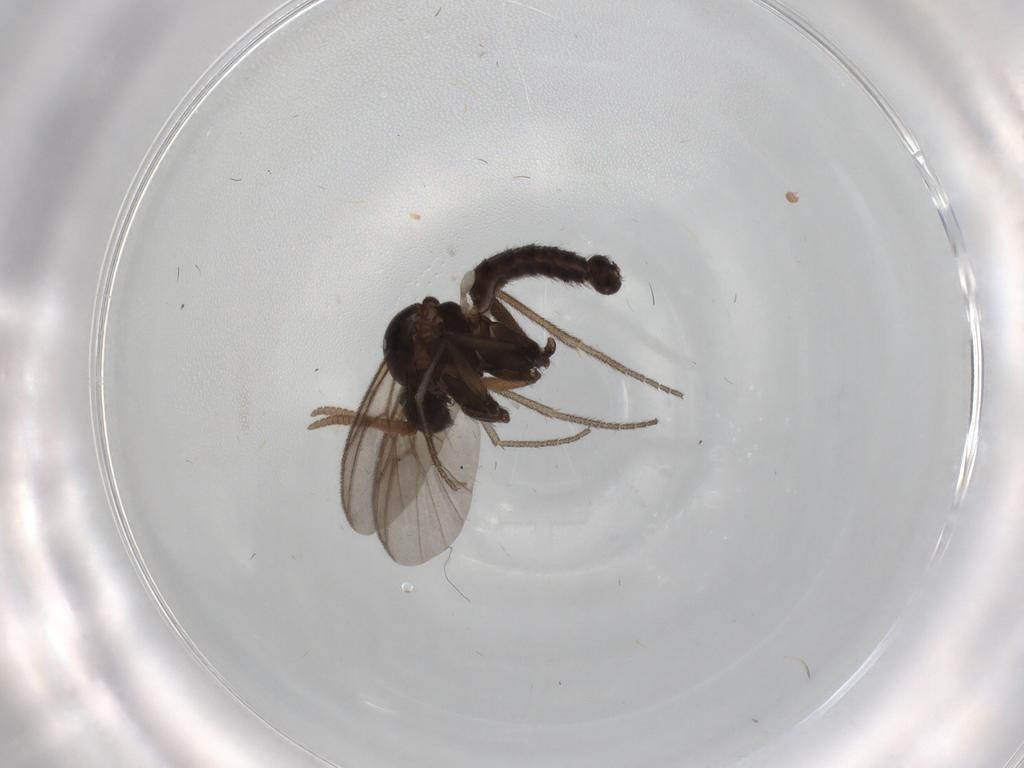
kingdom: Animalia
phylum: Arthropoda
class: Insecta
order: Diptera
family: Mycetophilidae
